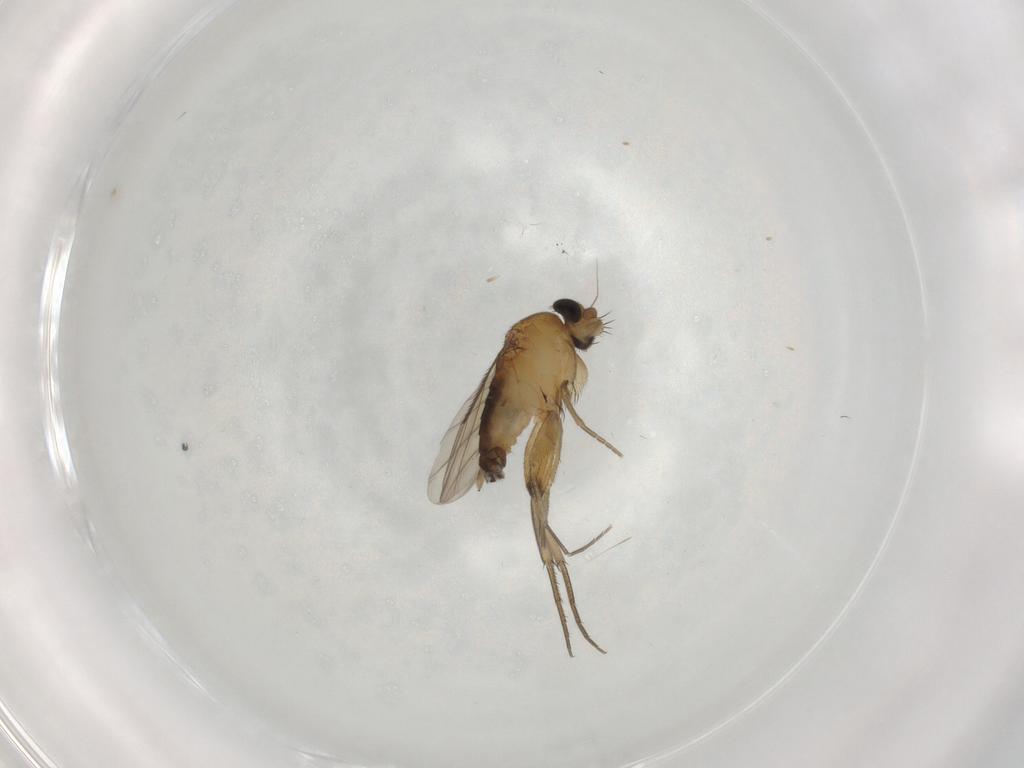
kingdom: Animalia
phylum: Arthropoda
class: Insecta
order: Diptera
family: Phoridae
